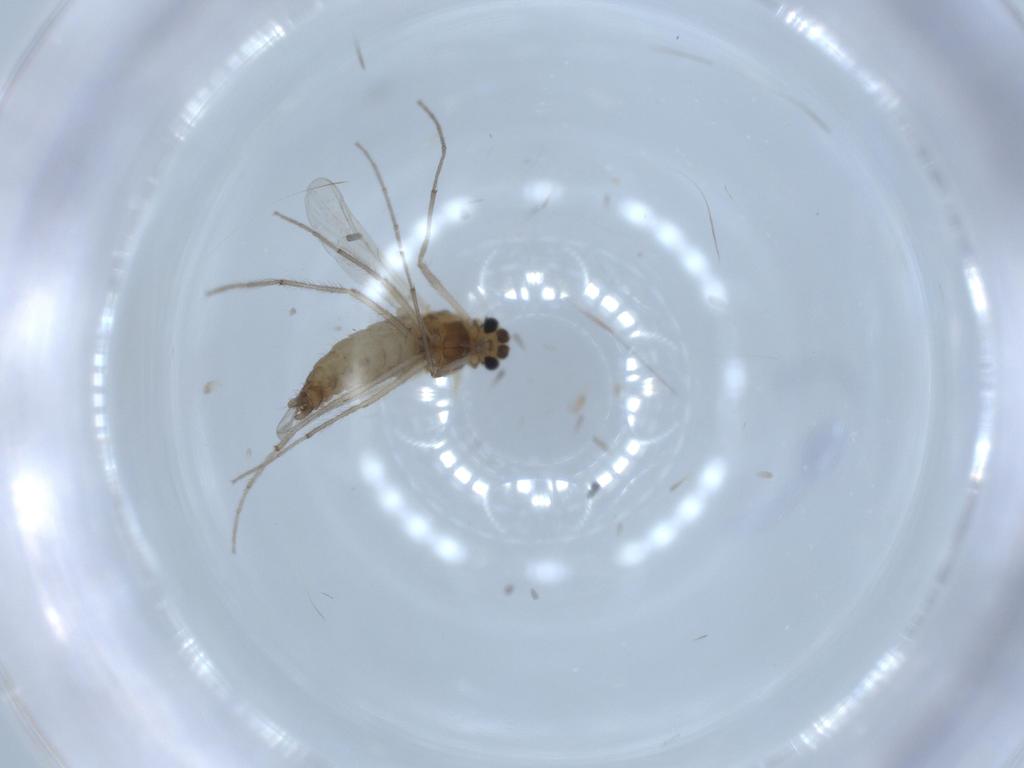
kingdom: Animalia
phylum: Arthropoda
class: Insecta
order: Diptera
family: Chironomidae
